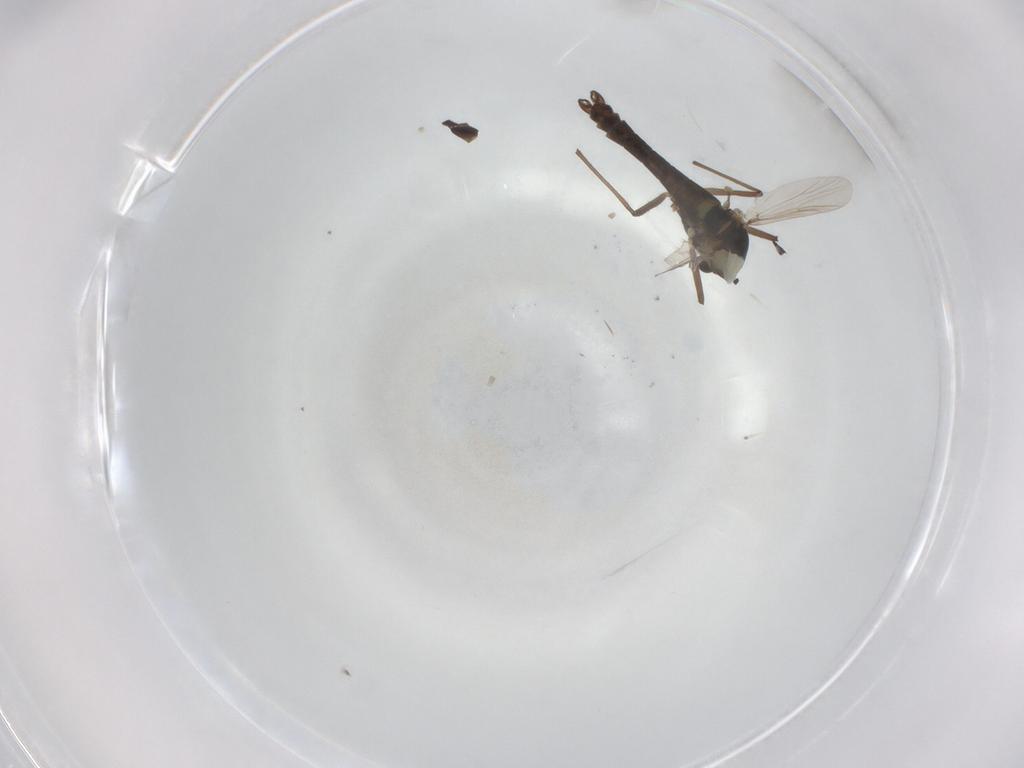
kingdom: Animalia
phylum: Arthropoda
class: Insecta
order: Diptera
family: Chironomidae
